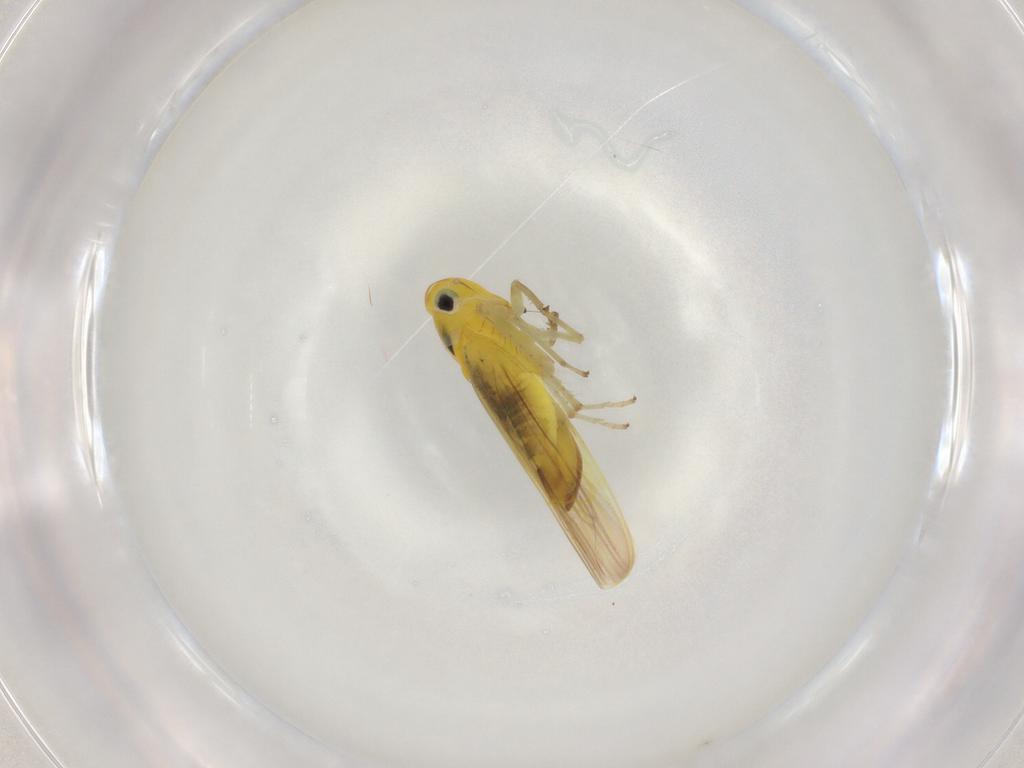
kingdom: Animalia
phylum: Arthropoda
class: Insecta
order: Hemiptera
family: Cicadellidae
